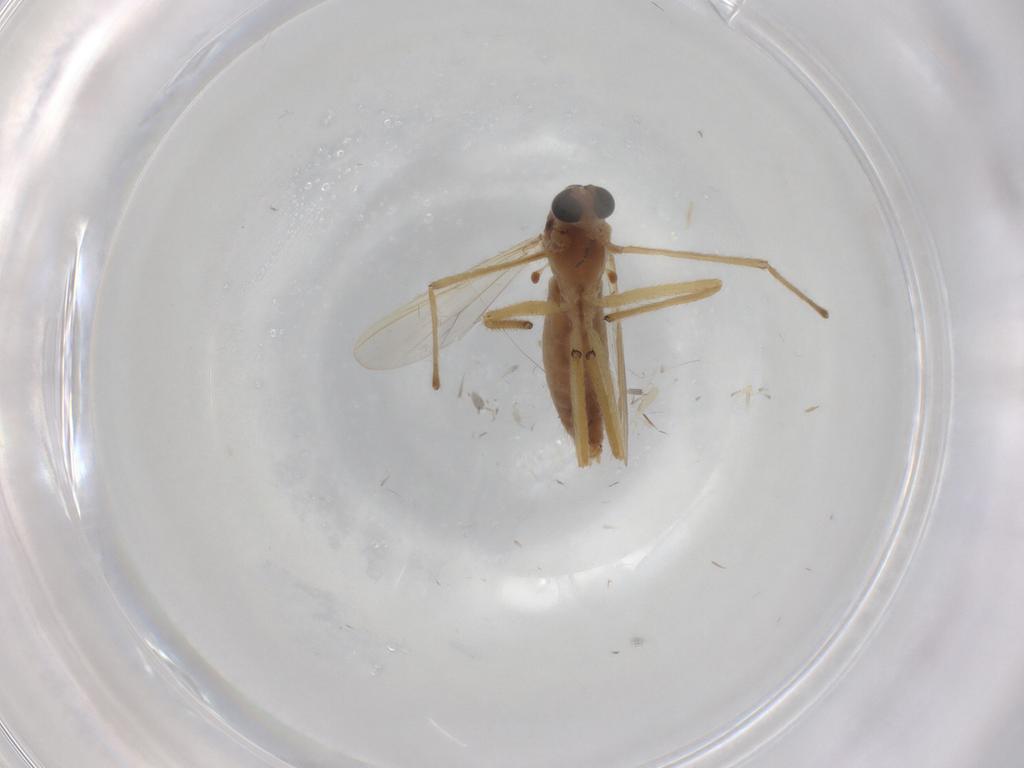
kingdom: Animalia
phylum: Arthropoda
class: Insecta
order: Diptera
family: Chironomidae
